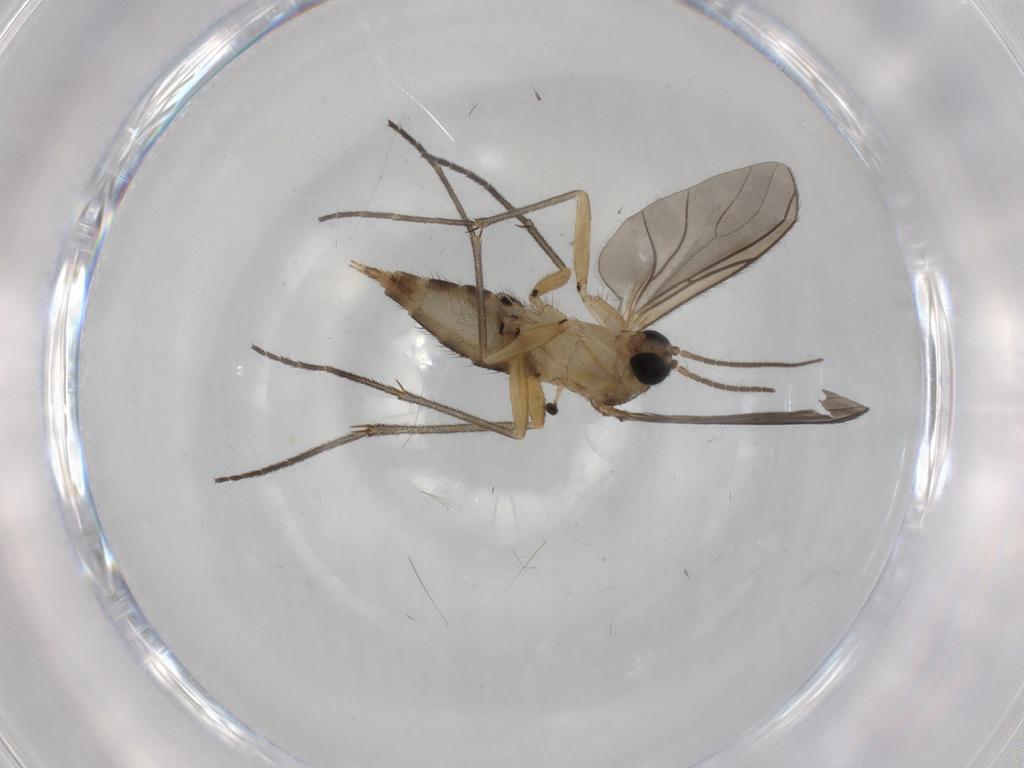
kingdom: Animalia
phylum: Arthropoda
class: Insecta
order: Diptera
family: Sciaridae
